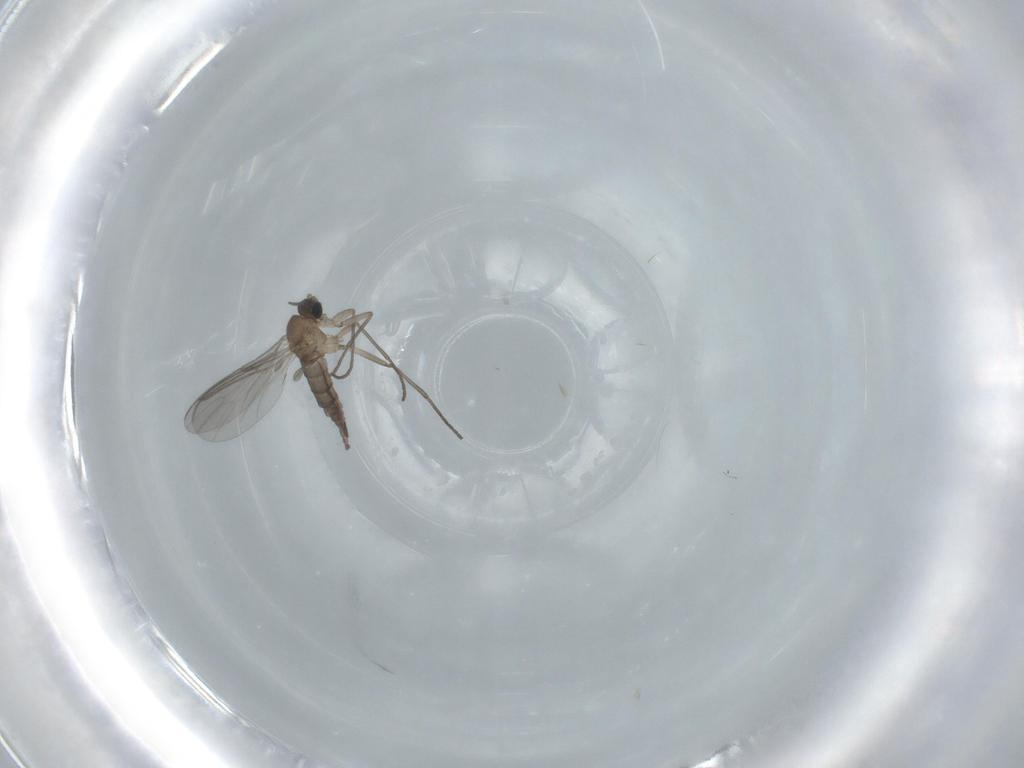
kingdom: Animalia
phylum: Arthropoda
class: Insecta
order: Diptera
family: Sciaridae
